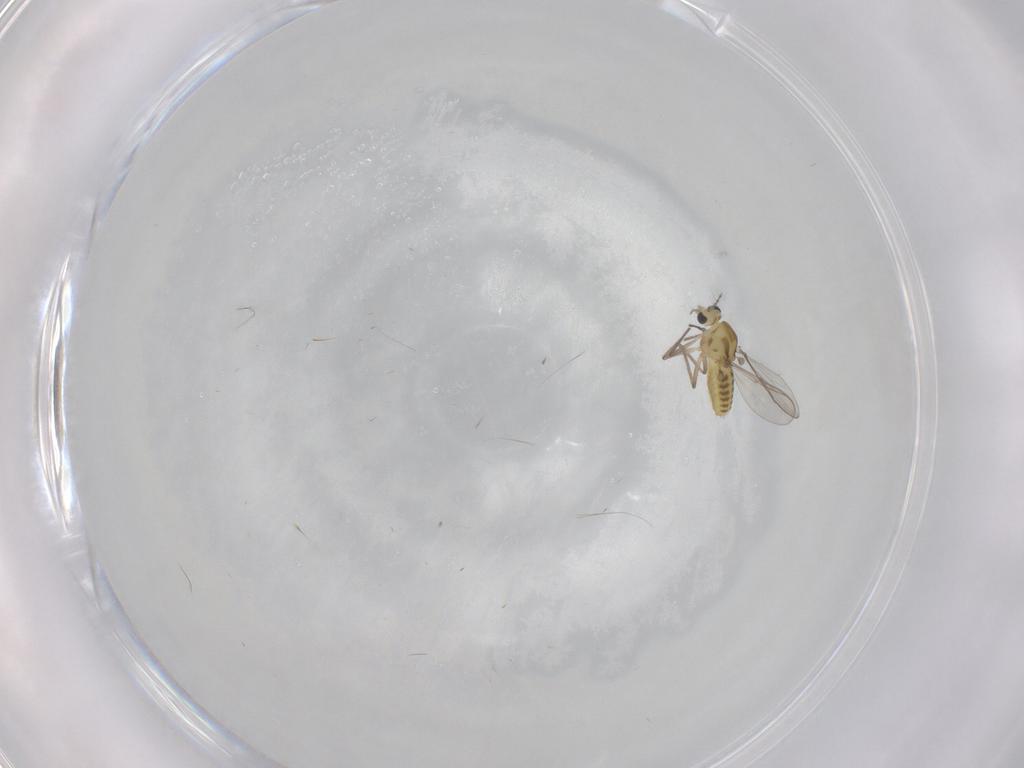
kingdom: Animalia
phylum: Arthropoda
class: Insecta
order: Diptera
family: Chironomidae
